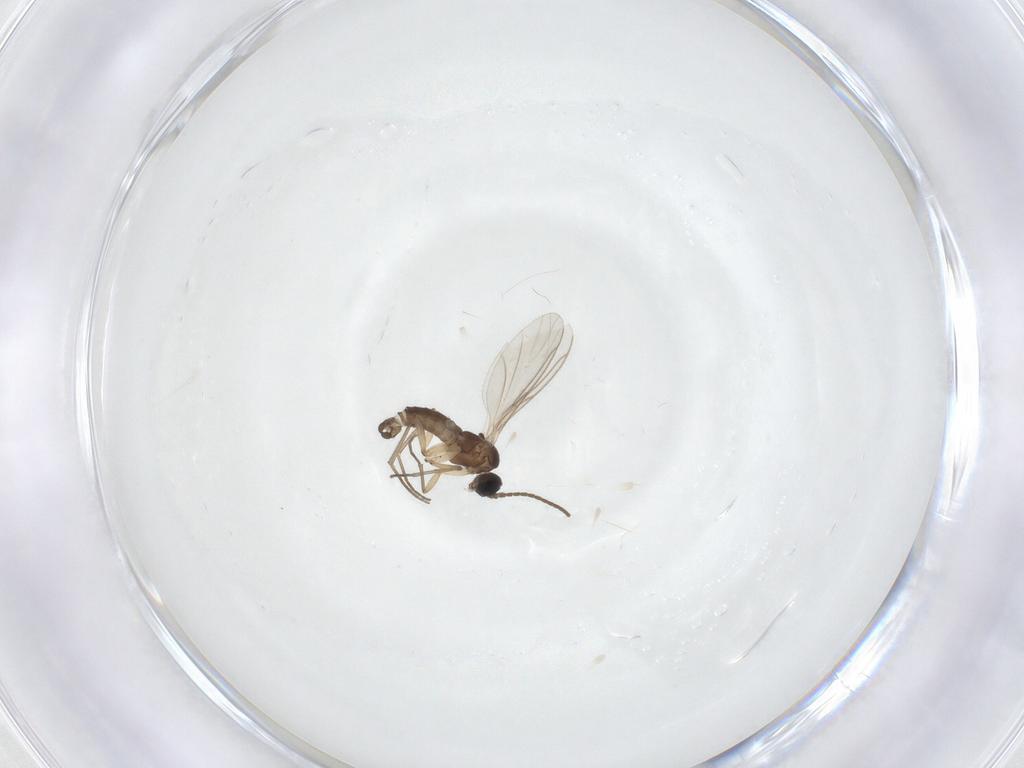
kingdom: Animalia
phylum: Arthropoda
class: Insecta
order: Diptera
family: Sciaridae
